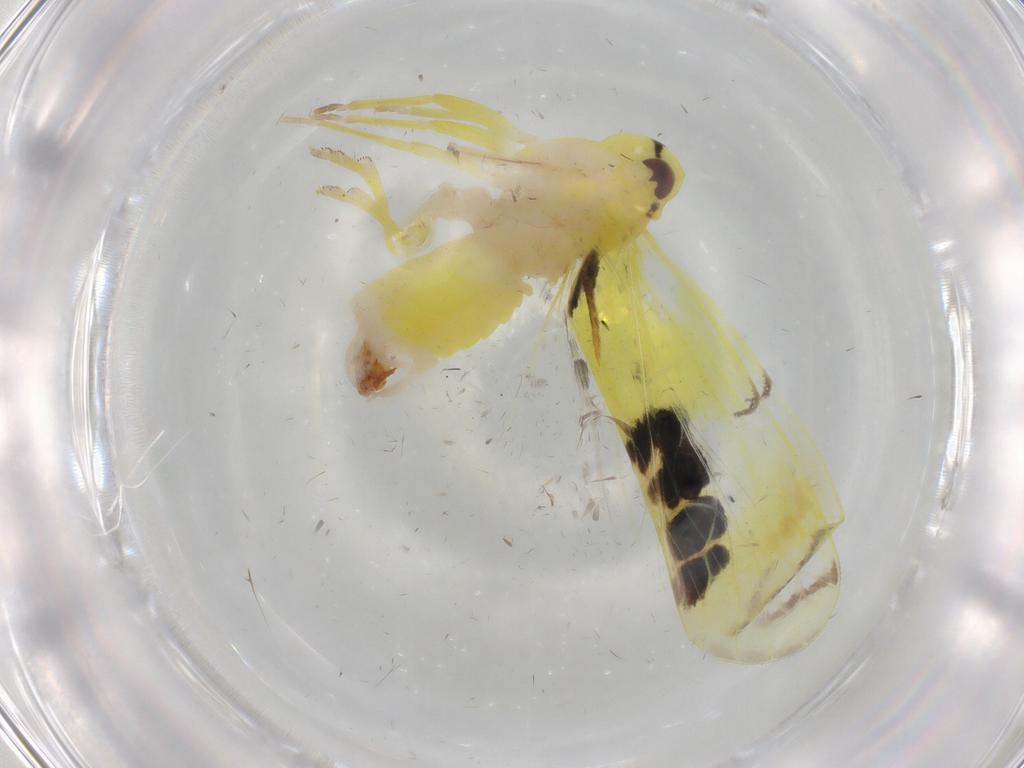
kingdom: Animalia
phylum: Arthropoda
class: Insecta
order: Hemiptera
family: Derbidae
